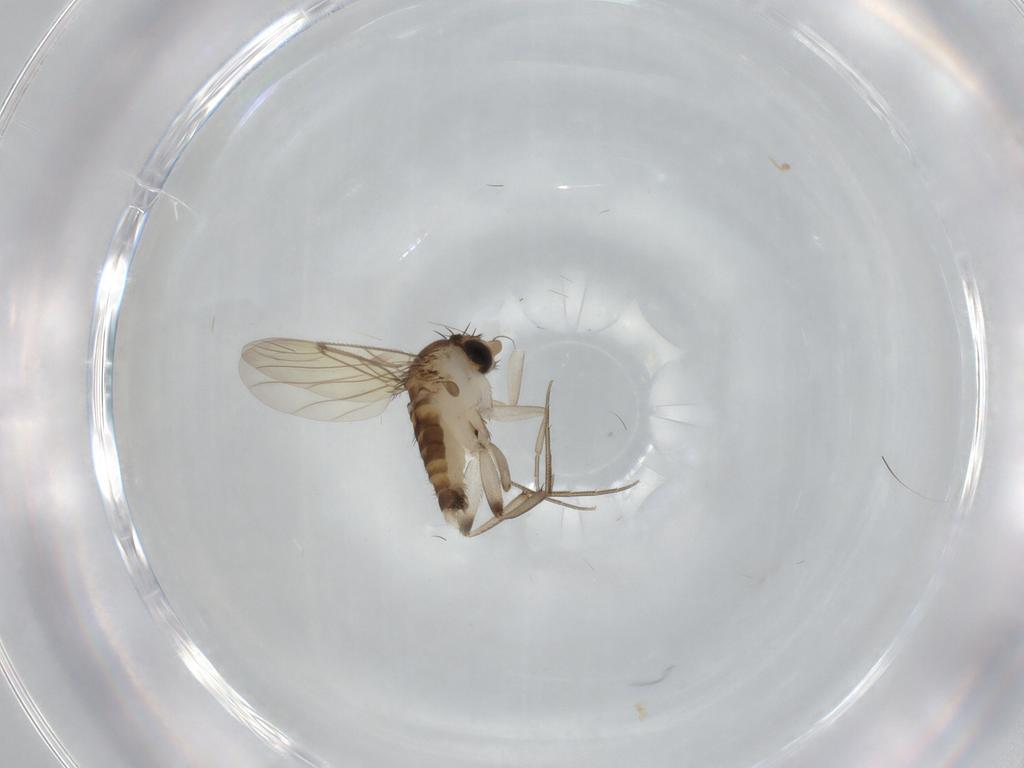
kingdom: Animalia
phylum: Arthropoda
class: Insecta
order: Diptera
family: Phoridae
